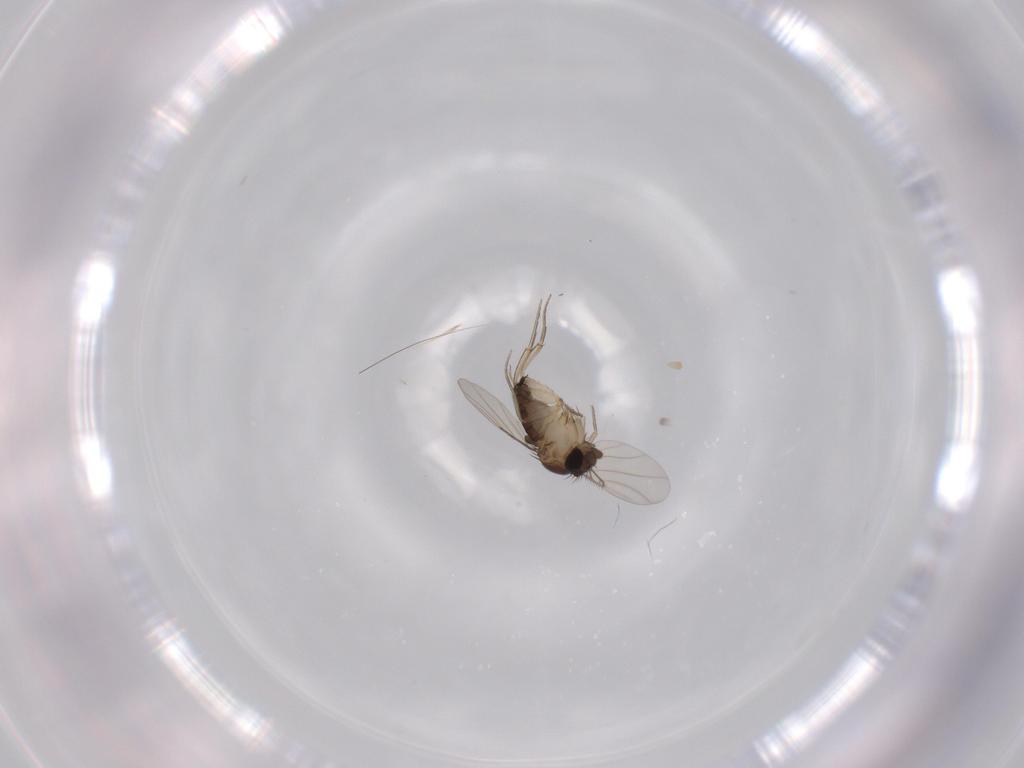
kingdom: Animalia
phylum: Arthropoda
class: Insecta
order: Diptera
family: Phoridae
